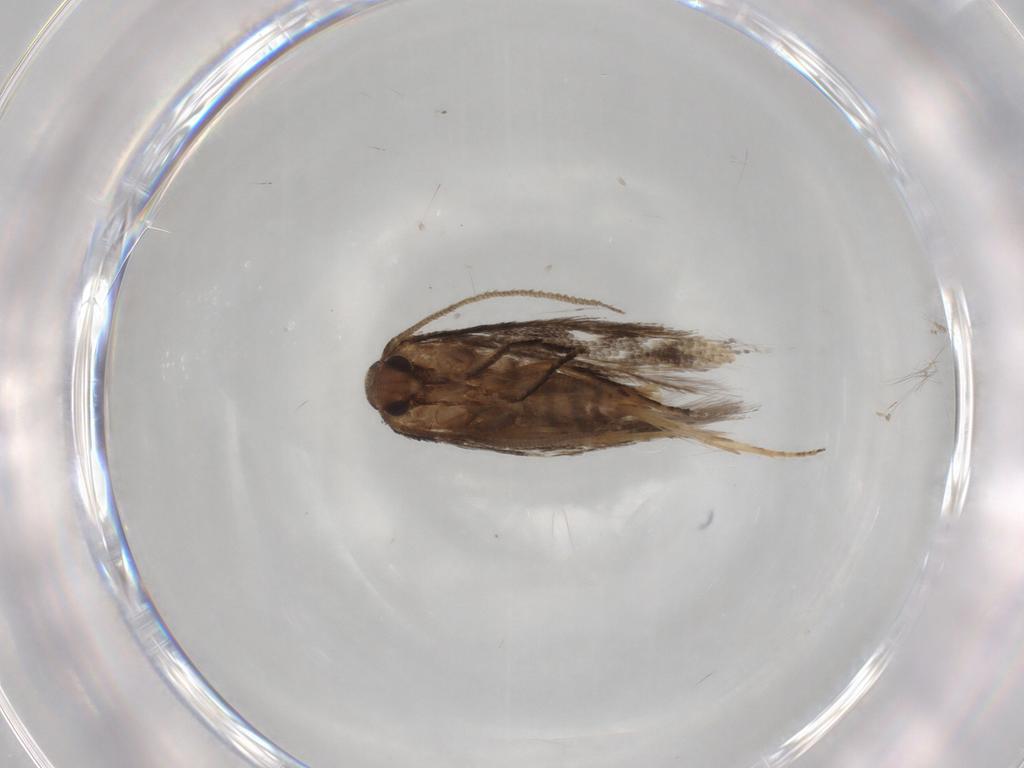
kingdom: Animalia
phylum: Arthropoda
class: Insecta
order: Lepidoptera
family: Elachistidae
